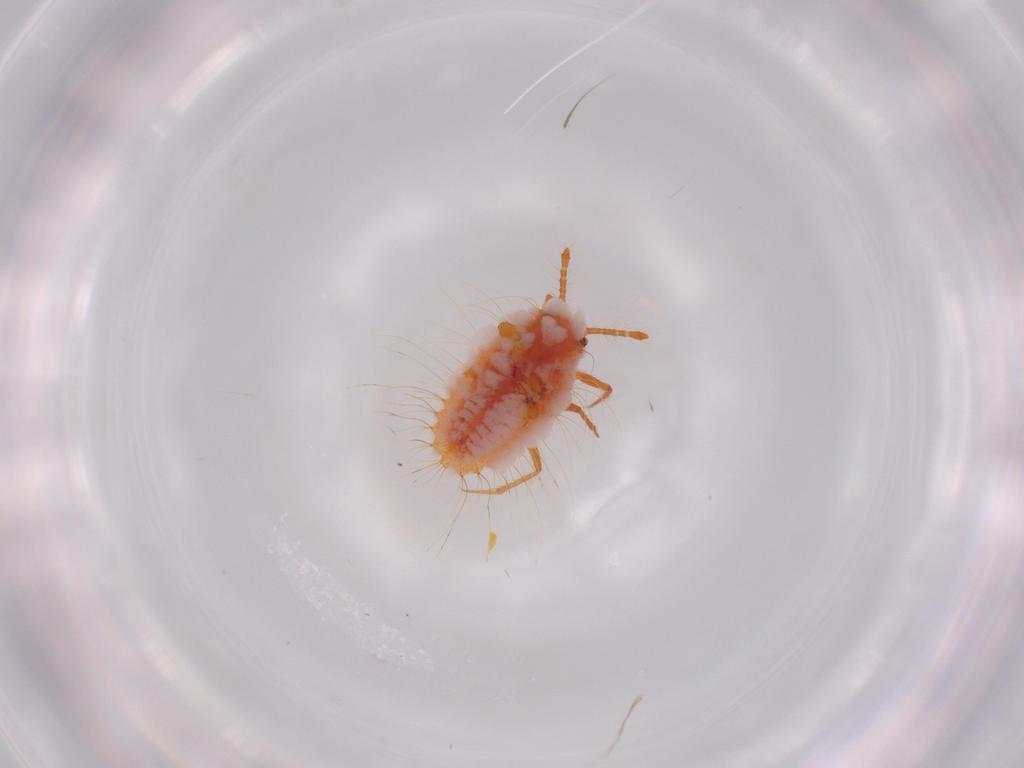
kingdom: Animalia
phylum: Arthropoda
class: Insecta
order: Hemiptera
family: Coccoidea_incertae_sedis
